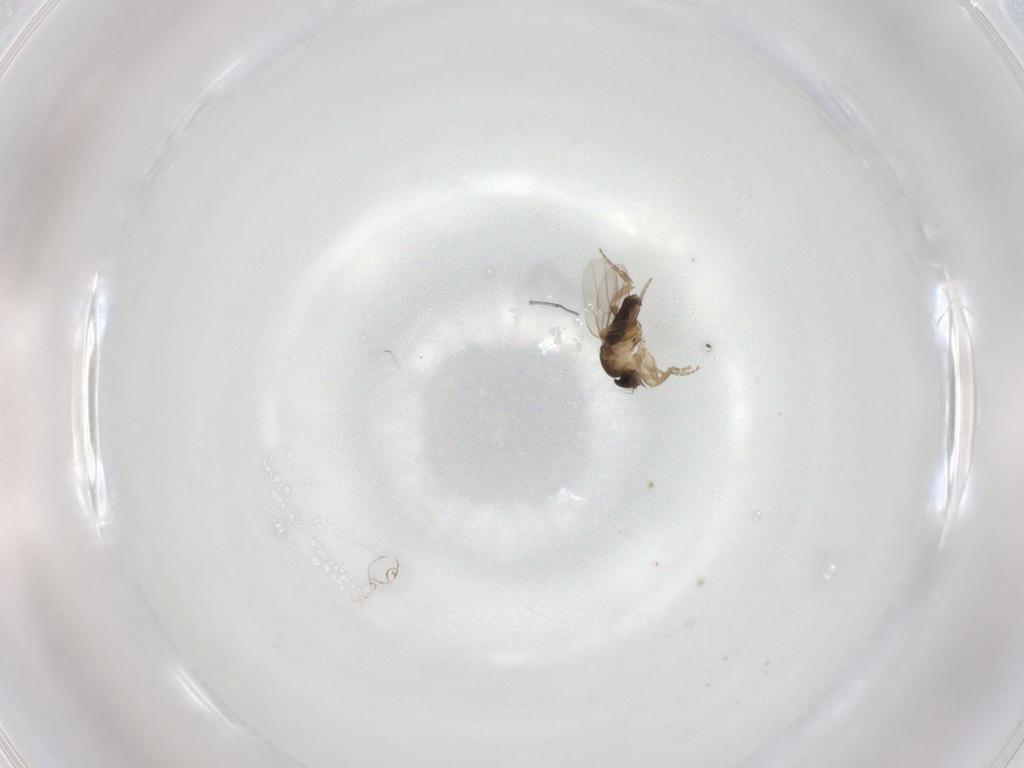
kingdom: Animalia
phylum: Arthropoda
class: Insecta
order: Diptera
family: Phoridae
